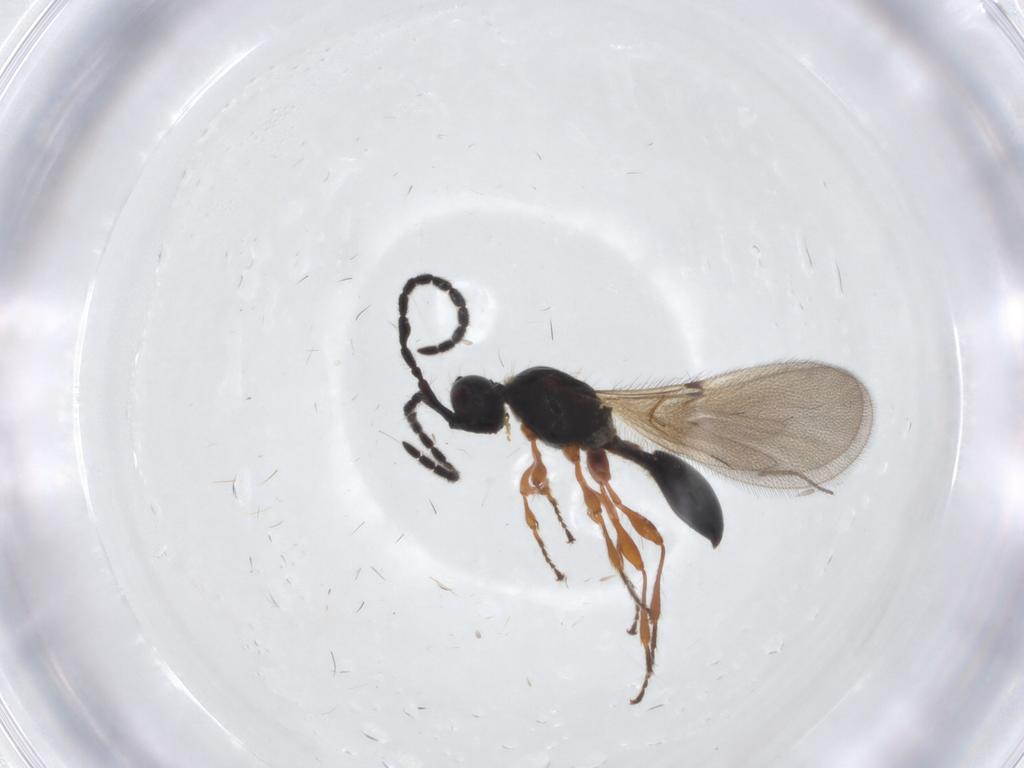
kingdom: Animalia
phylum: Arthropoda
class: Insecta
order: Hymenoptera
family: Diapriidae
